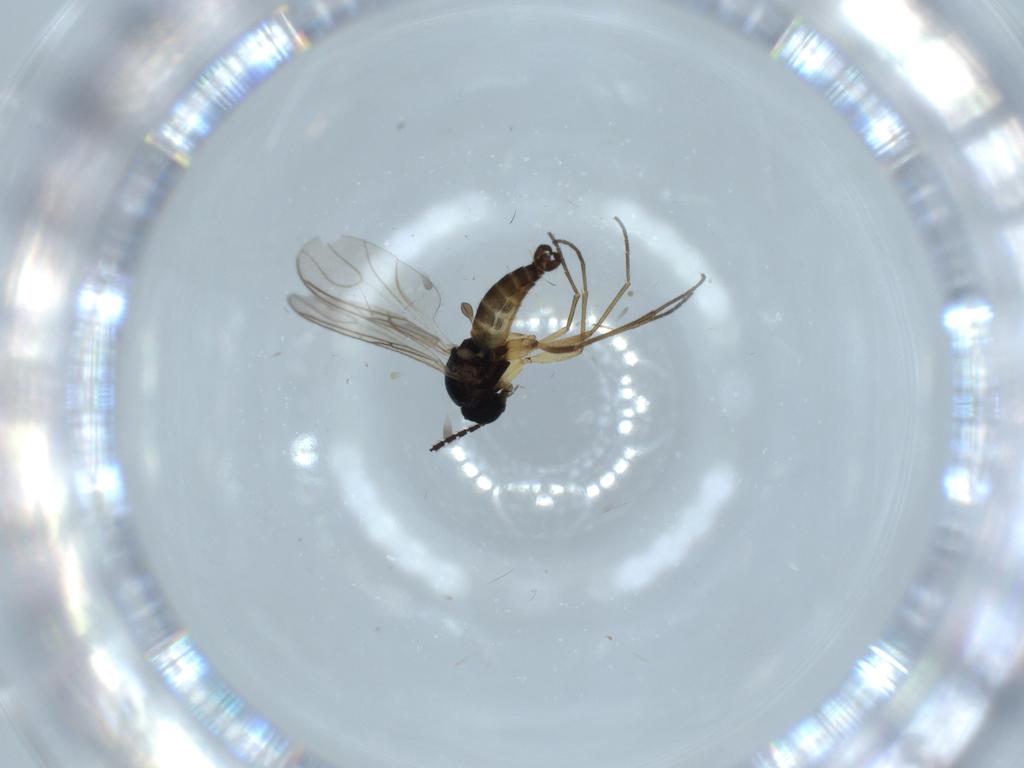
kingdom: Animalia
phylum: Arthropoda
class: Insecta
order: Diptera
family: Sciaridae
